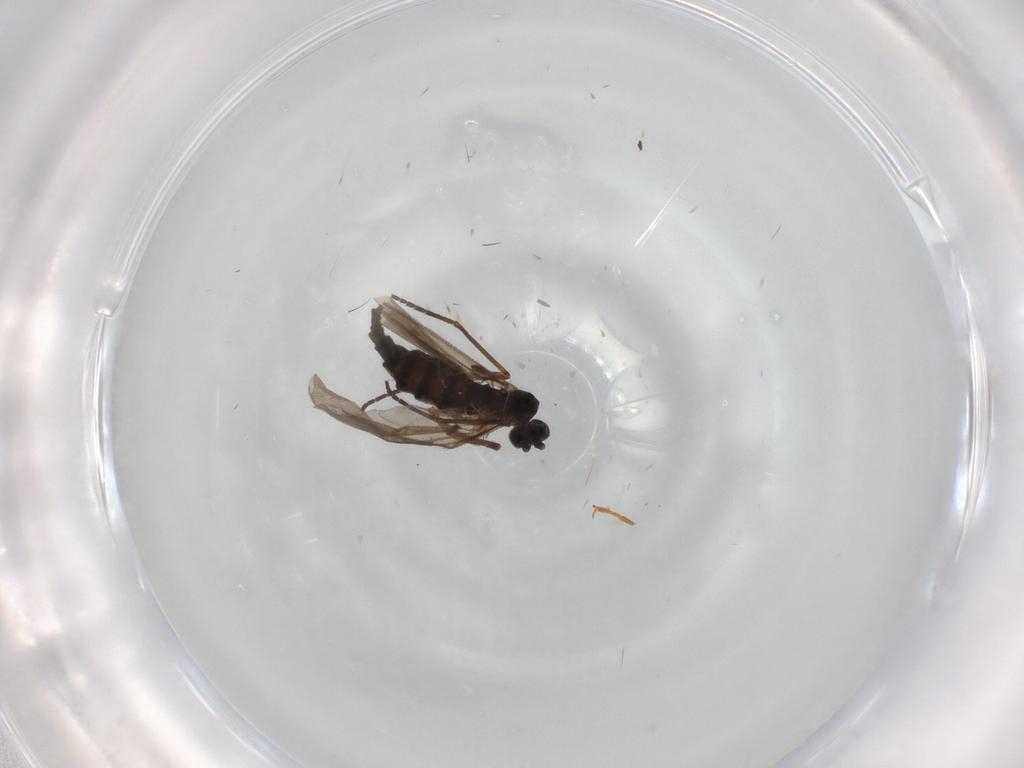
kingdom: Animalia
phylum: Arthropoda
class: Insecta
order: Diptera
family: Sciaridae
